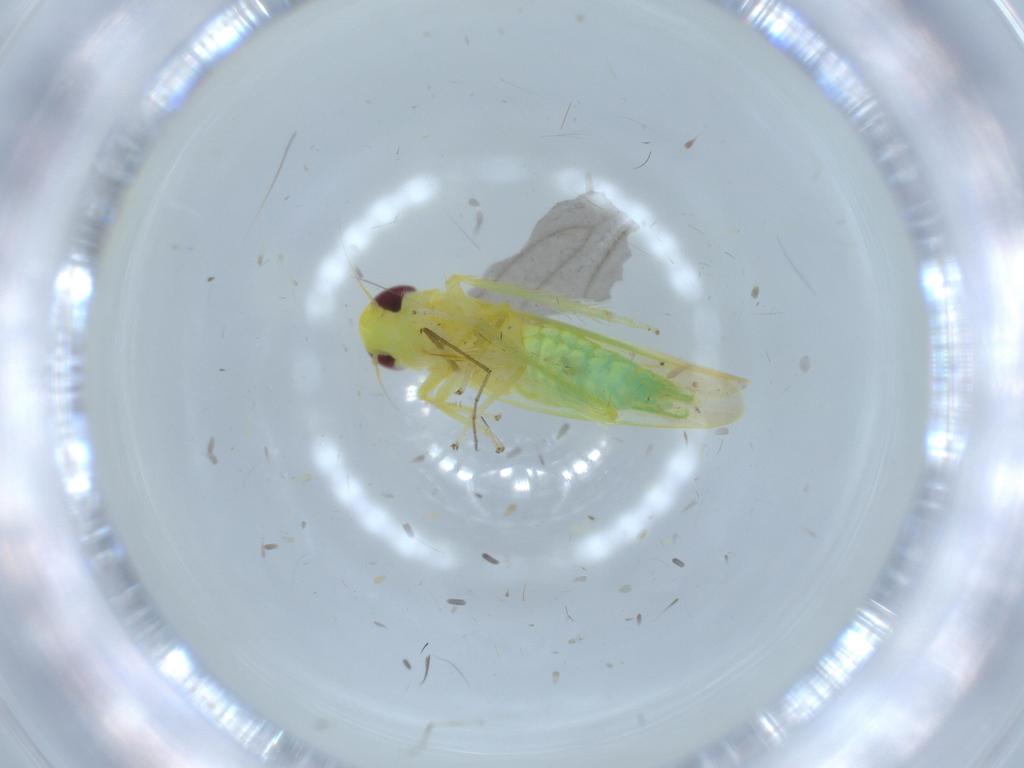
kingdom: Animalia
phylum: Arthropoda
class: Insecta
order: Hemiptera
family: Cicadellidae
